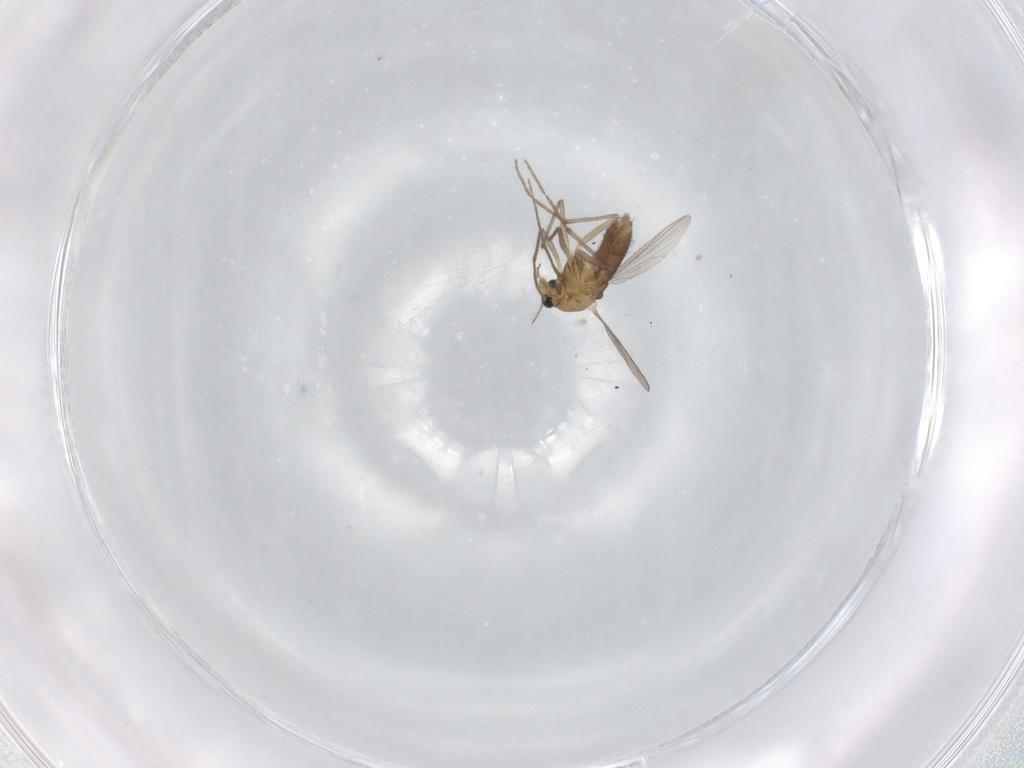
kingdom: Animalia
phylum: Arthropoda
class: Insecta
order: Diptera
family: Chironomidae
